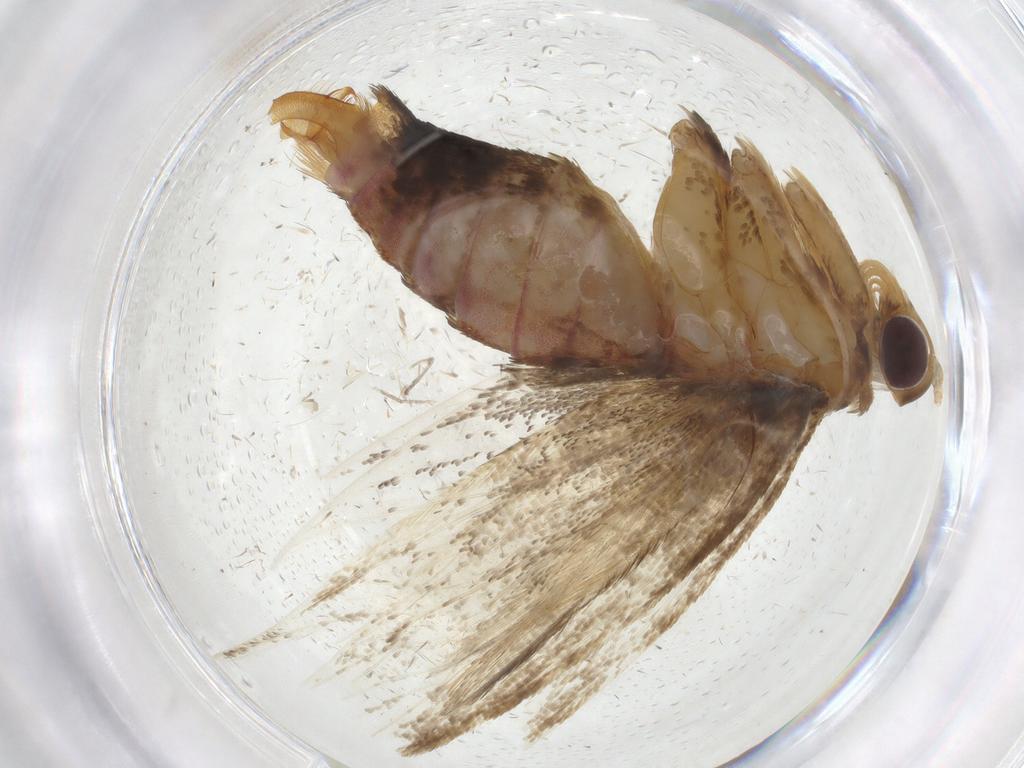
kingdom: Animalia
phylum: Arthropoda
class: Insecta
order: Lepidoptera
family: Lecithoceridae
